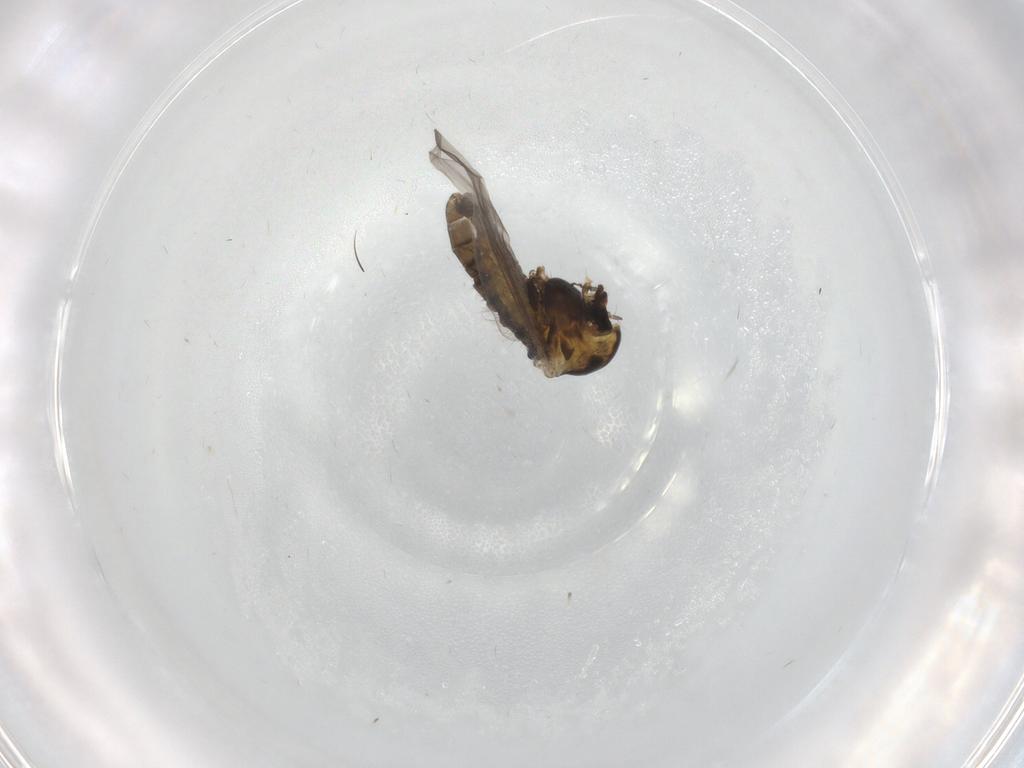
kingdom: Animalia
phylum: Arthropoda
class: Insecta
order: Diptera
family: Chironomidae
